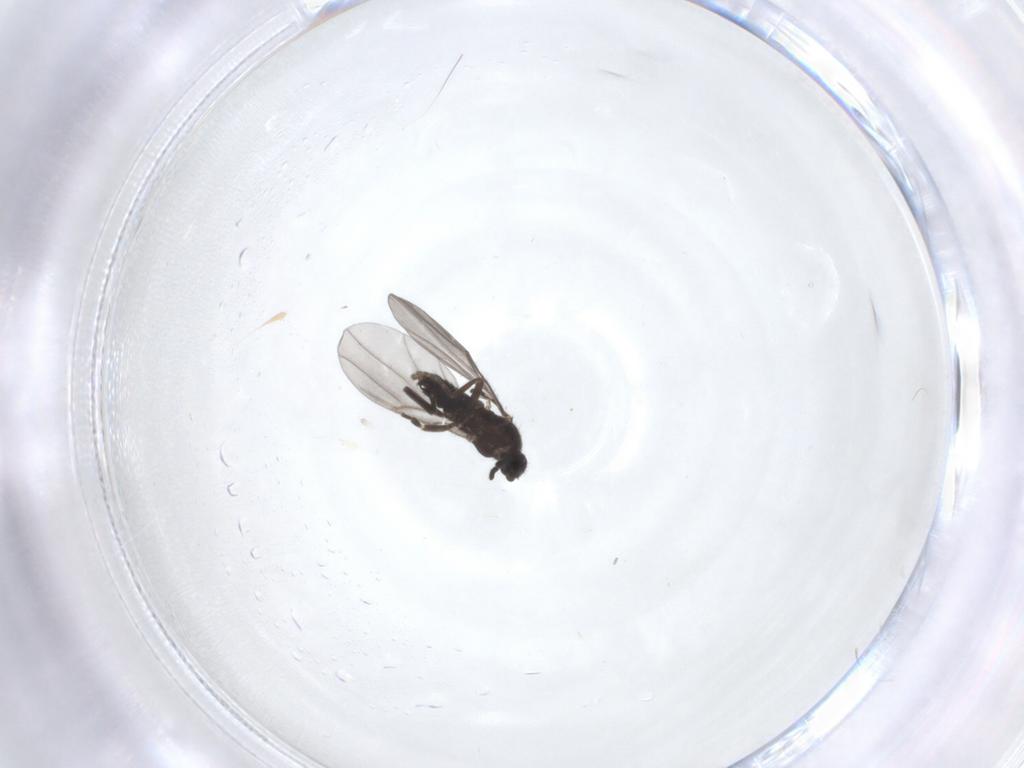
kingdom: Animalia
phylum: Arthropoda
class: Insecta
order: Diptera
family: Tipulidae
